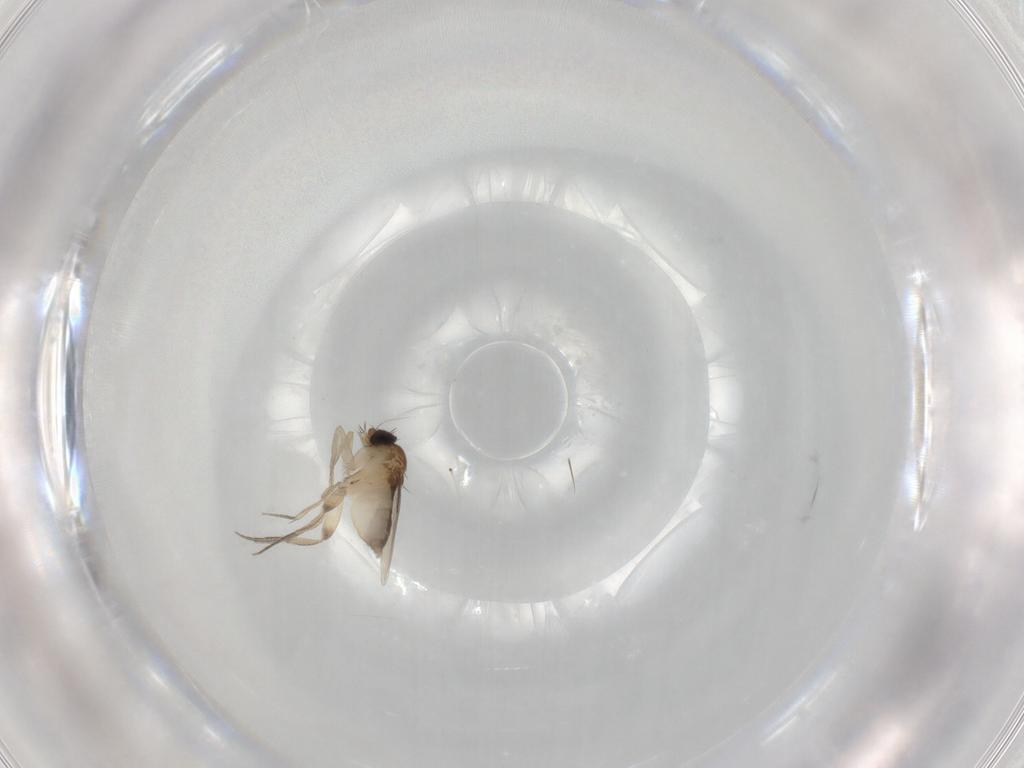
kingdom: Animalia
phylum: Arthropoda
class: Insecta
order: Diptera
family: Phoridae
